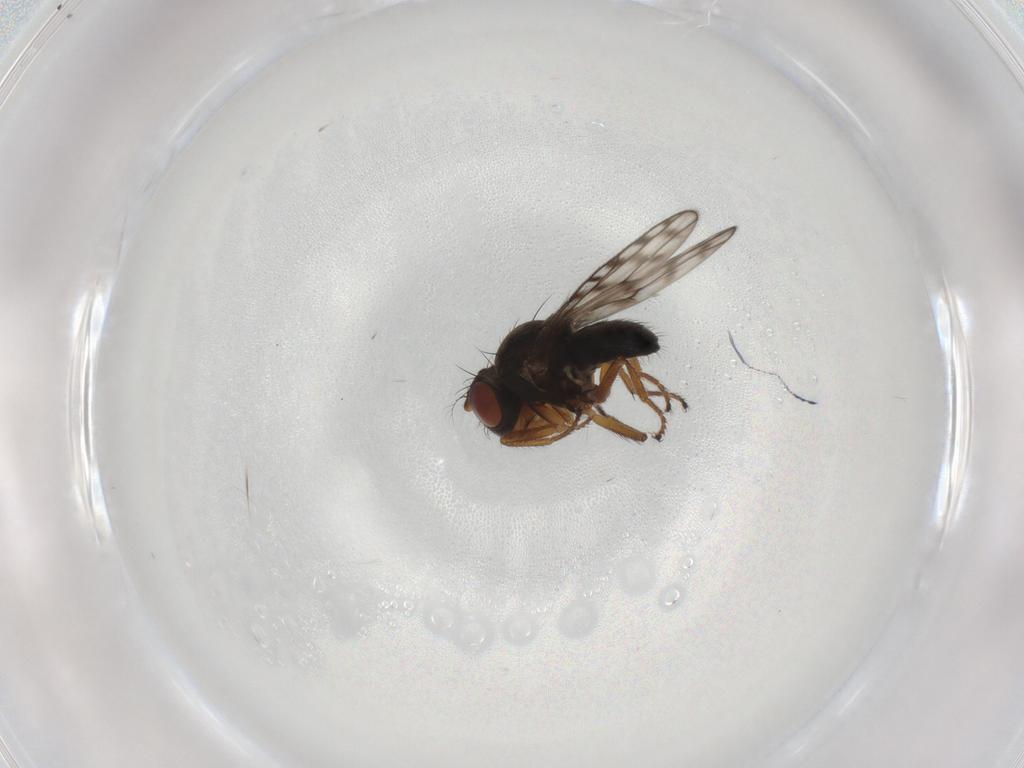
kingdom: Animalia
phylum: Arthropoda
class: Insecta
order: Diptera
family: Ephydridae
